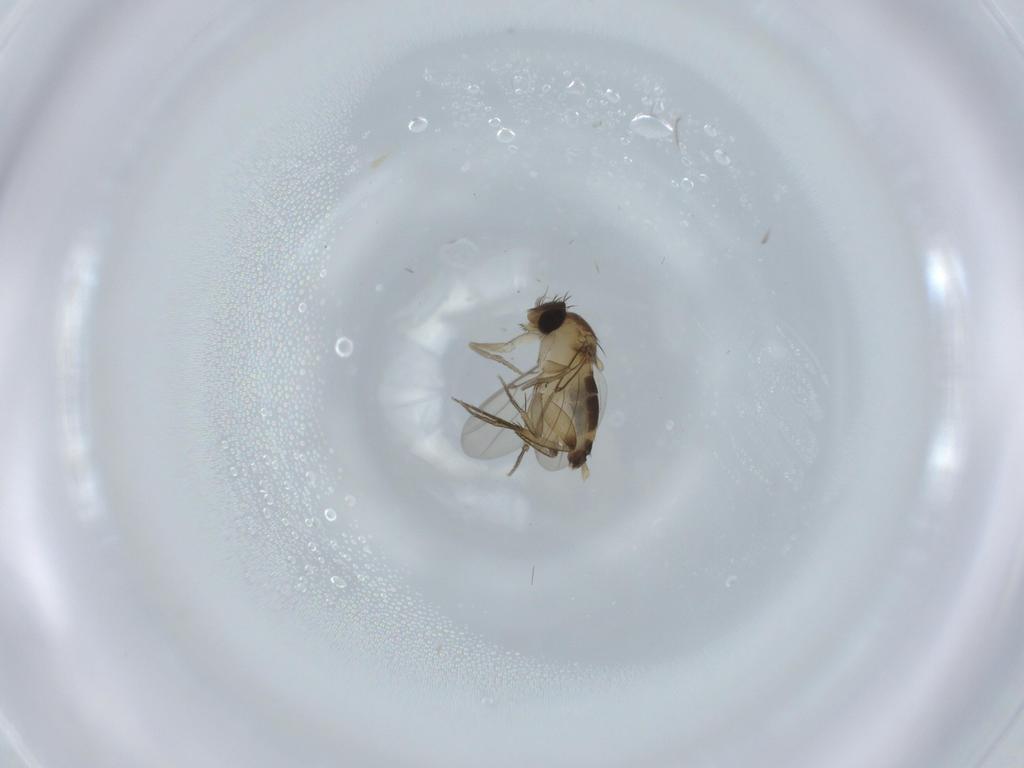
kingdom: Animalia
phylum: Arthropoda
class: Insecta
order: Diptera
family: Phoridae
